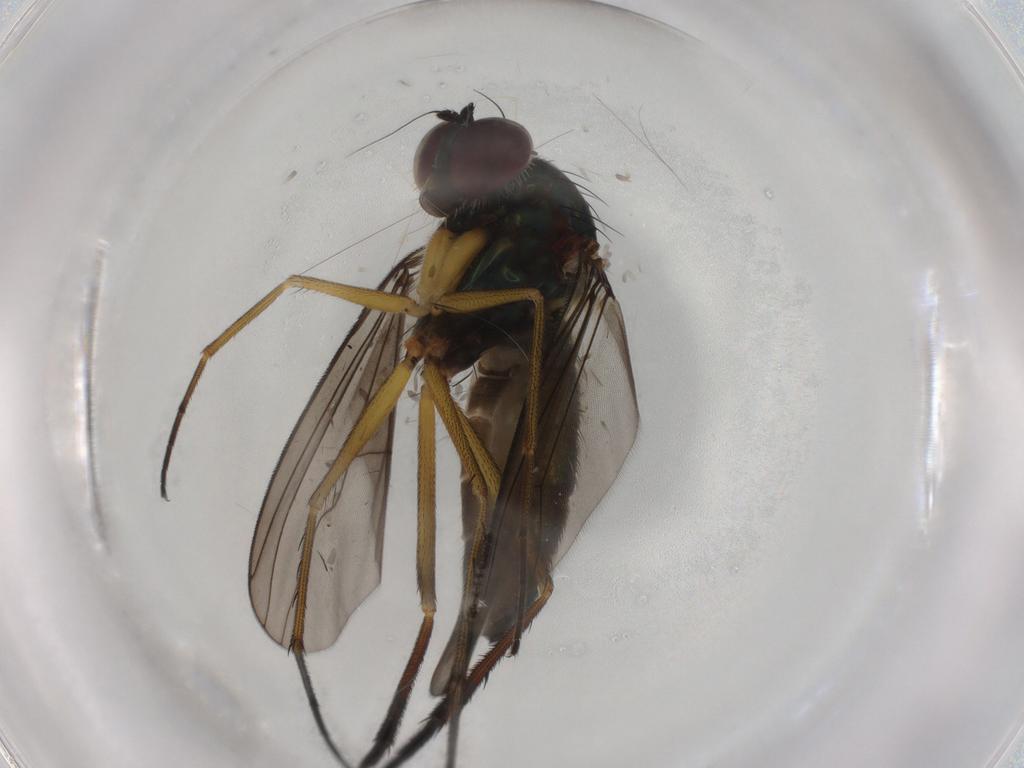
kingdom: Animalia
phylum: Arthropoda
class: Insecta
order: Diptera
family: Dolichopodidae
